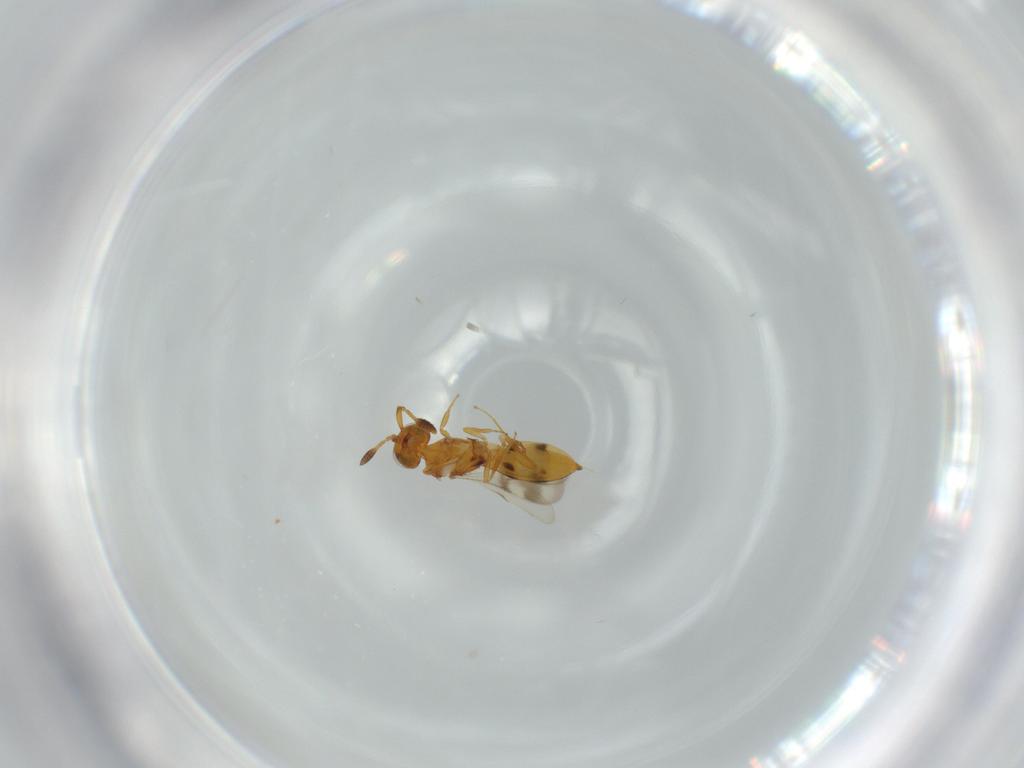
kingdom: Animalia
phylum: Arthropoda
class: Insecta
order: Hymenoptera
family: Scelionidae
